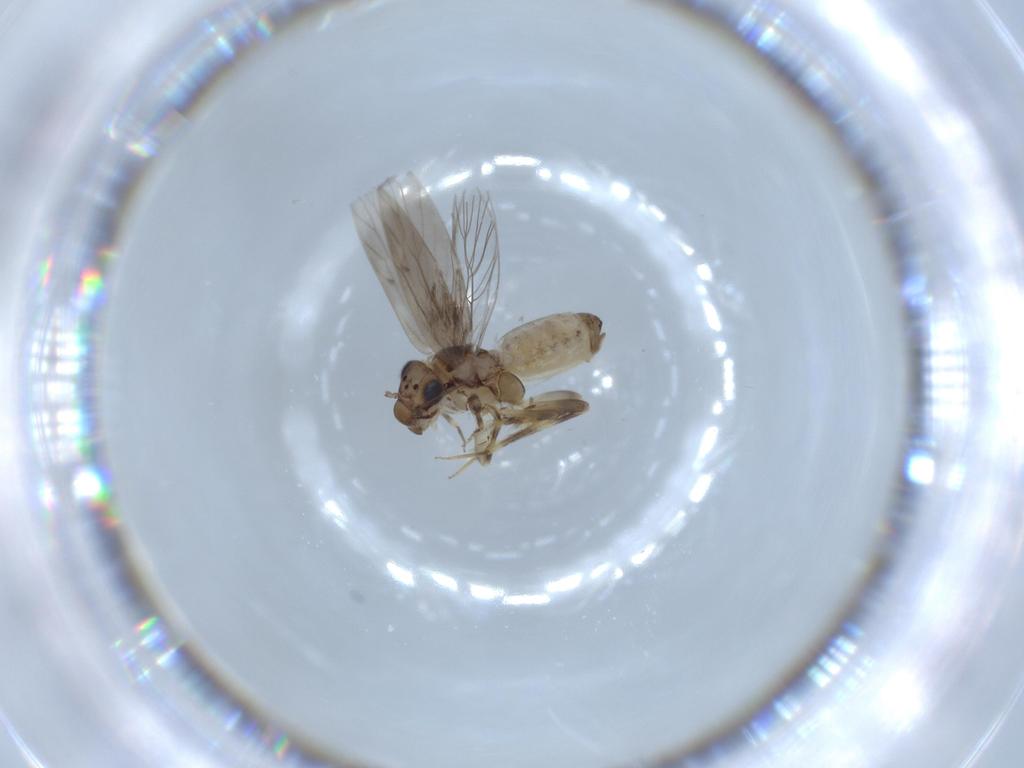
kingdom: Animalia
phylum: Arthropoda
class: Insecta
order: Psocodea
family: Lepidopsocidae
